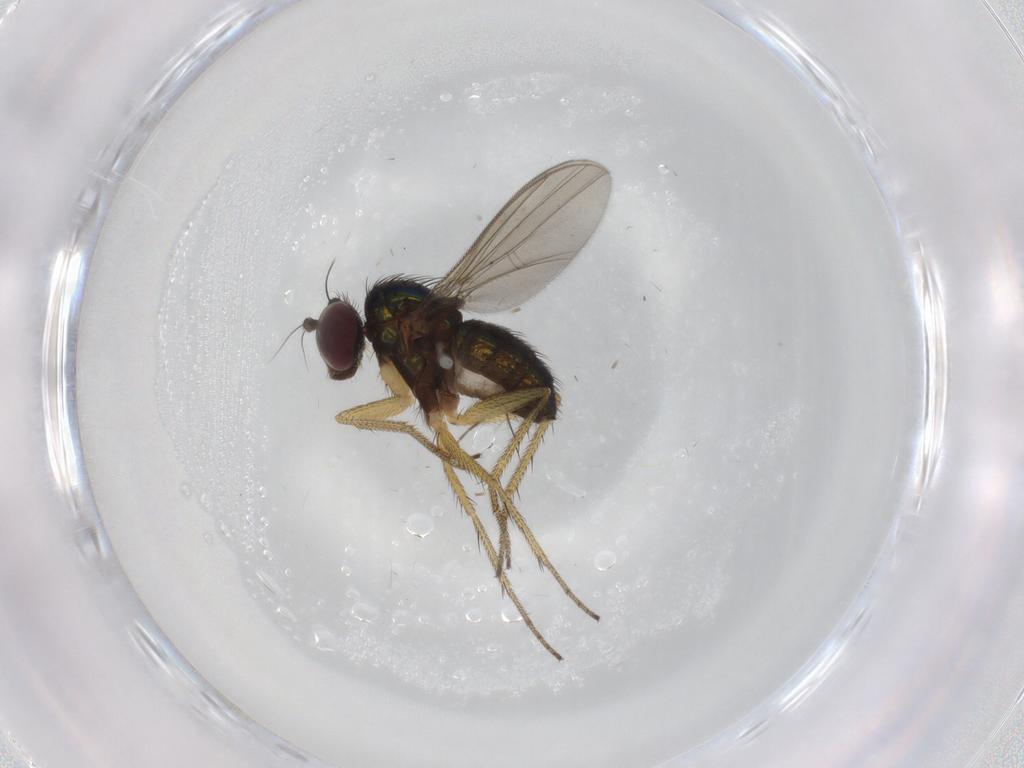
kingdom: Animalia
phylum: Arthropoda
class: Insecta
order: Diptera
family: Chironomidae
